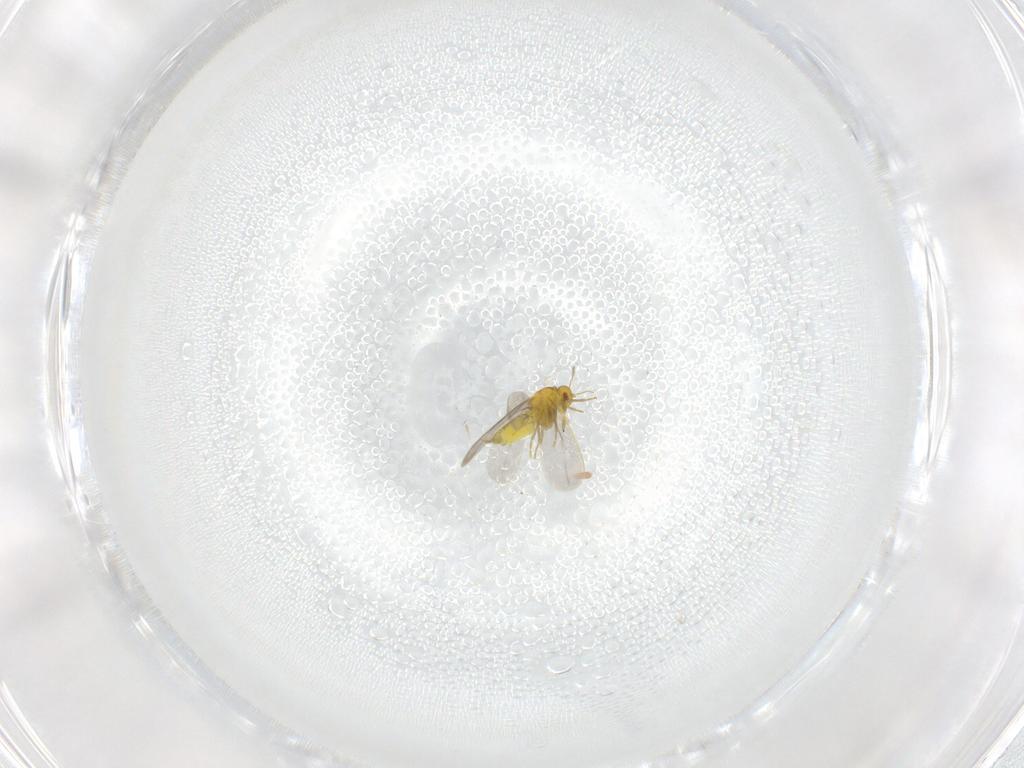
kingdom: Animalia
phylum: Arthropoda
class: Insecta
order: Hemiptera
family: Aleyrodidae
